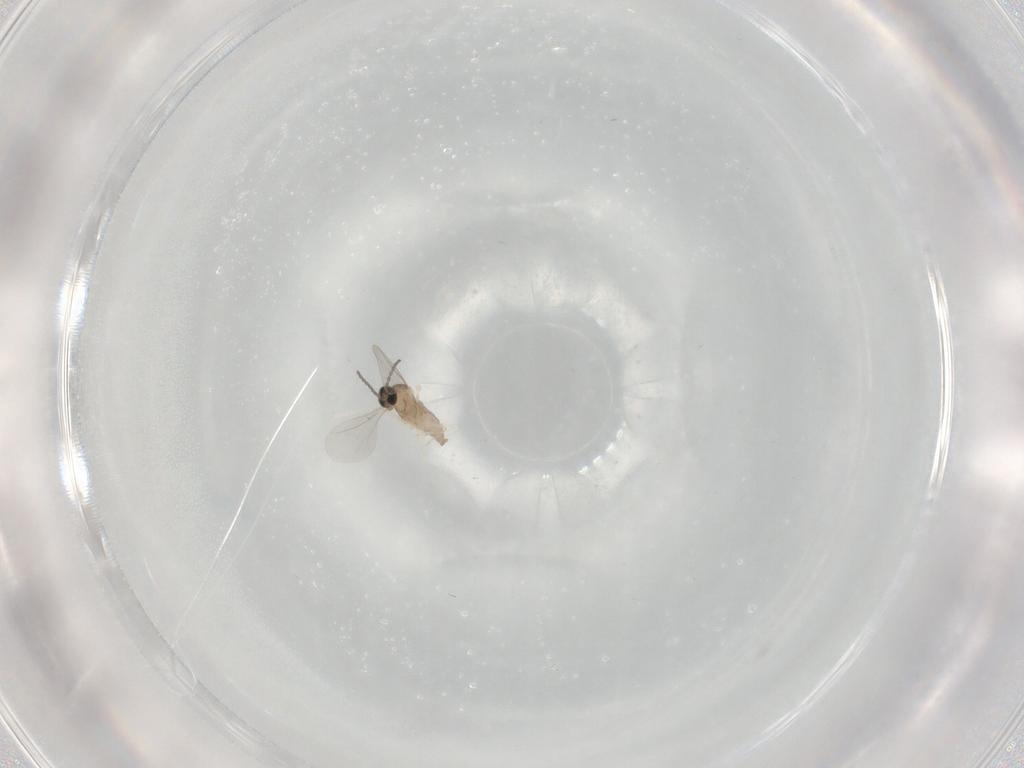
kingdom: Animalia
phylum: Arthropoda
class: Insecta
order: Diptera
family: Cecidomyiidae
